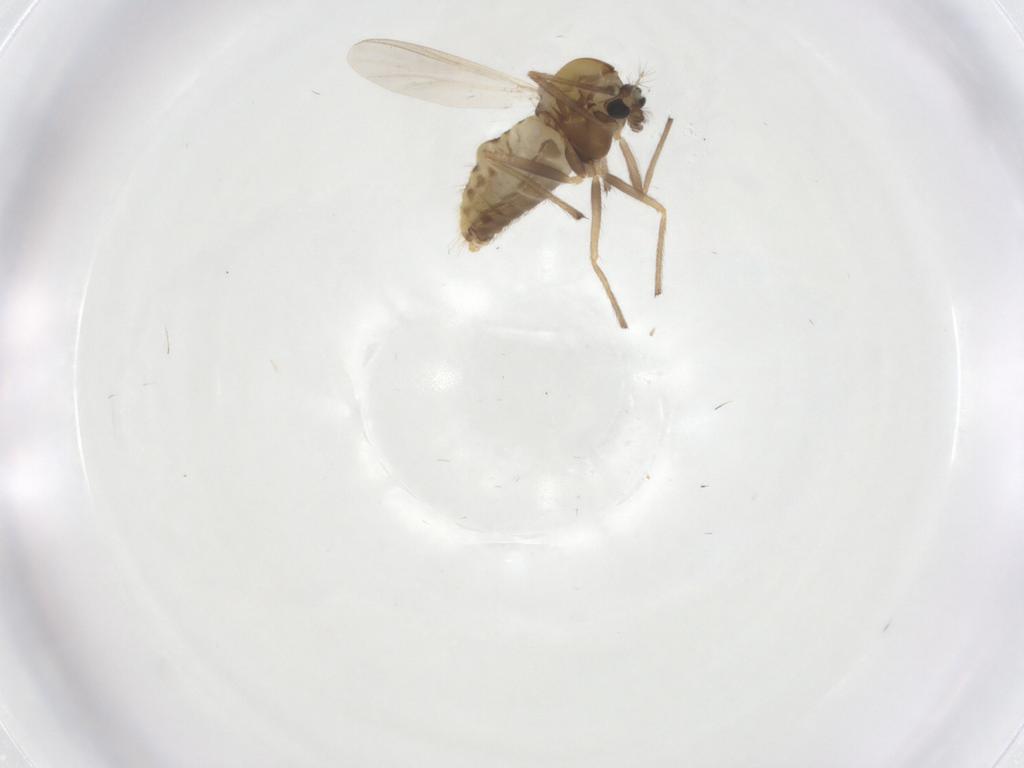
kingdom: Animalia
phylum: Arthropoda
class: Insecta
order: Diptera
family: Chironomidae
